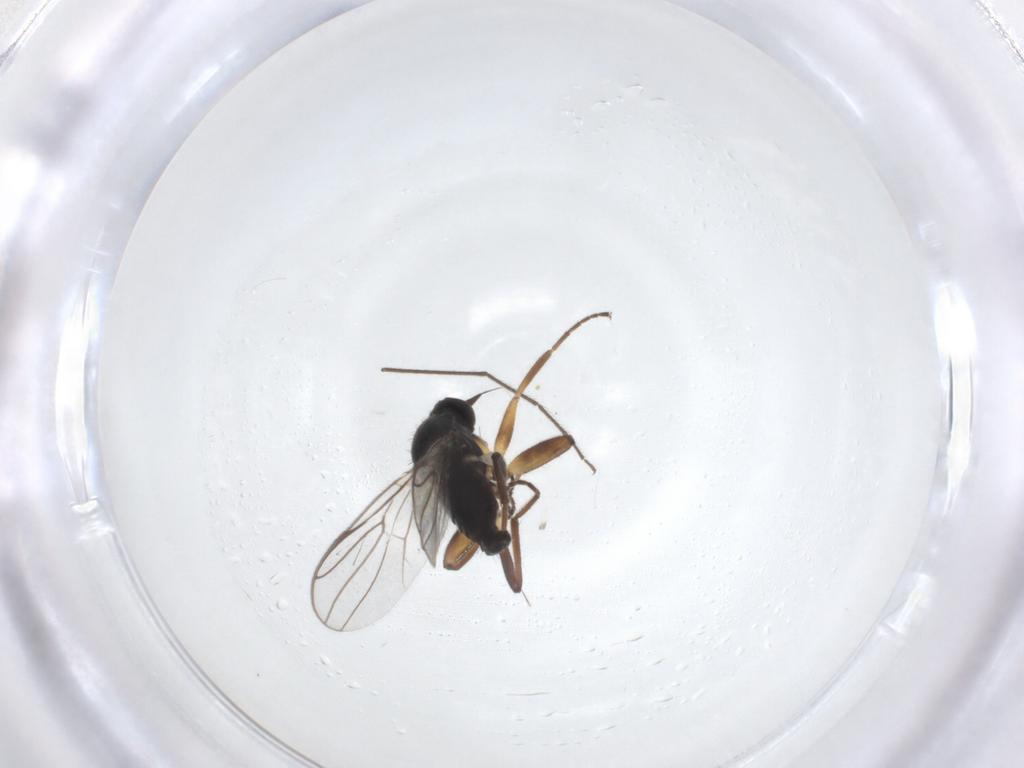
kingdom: Animalia
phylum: Arthropoda
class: Insecta
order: Diptera
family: Hybotidae
